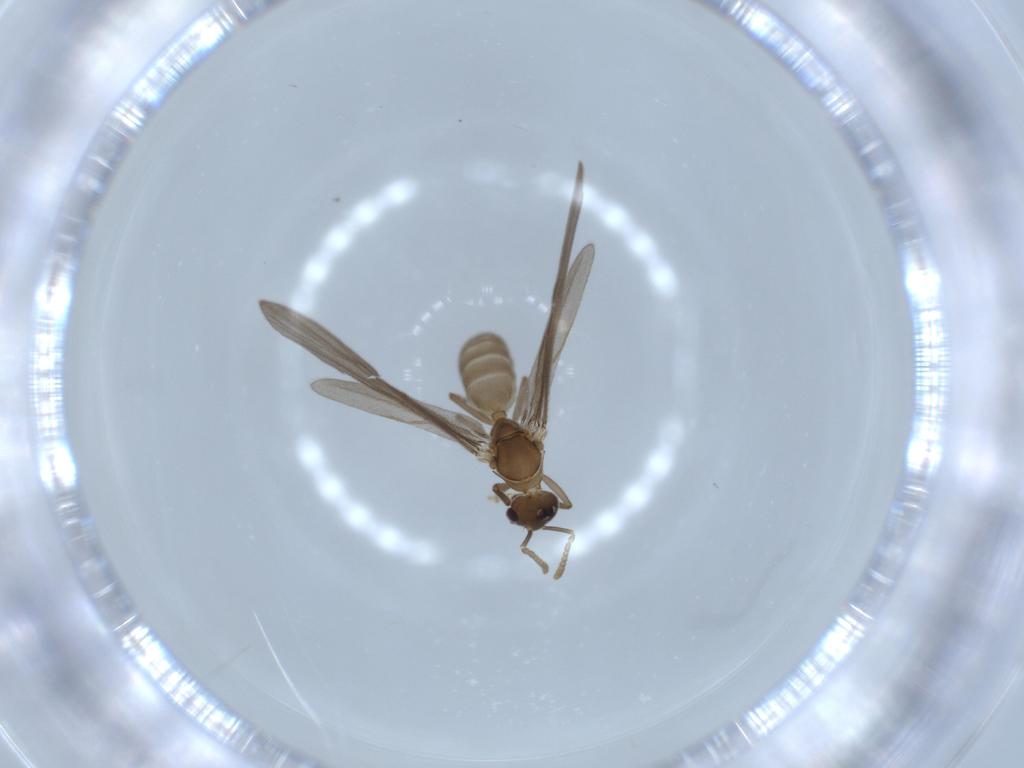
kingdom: Animalia
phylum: Arthropoda
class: Insecta
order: Hymenoptera
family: Formicidae
